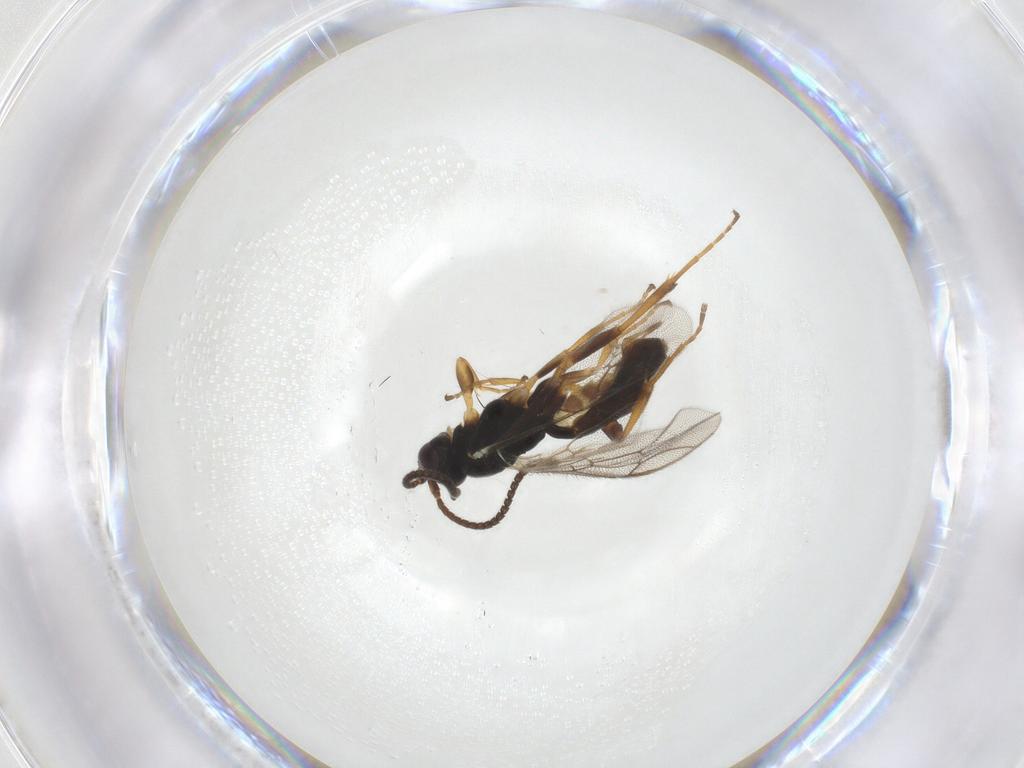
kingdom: Animalia
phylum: Arthropoda
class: Insecta
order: Hymenoptera
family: Ichneumonidae
